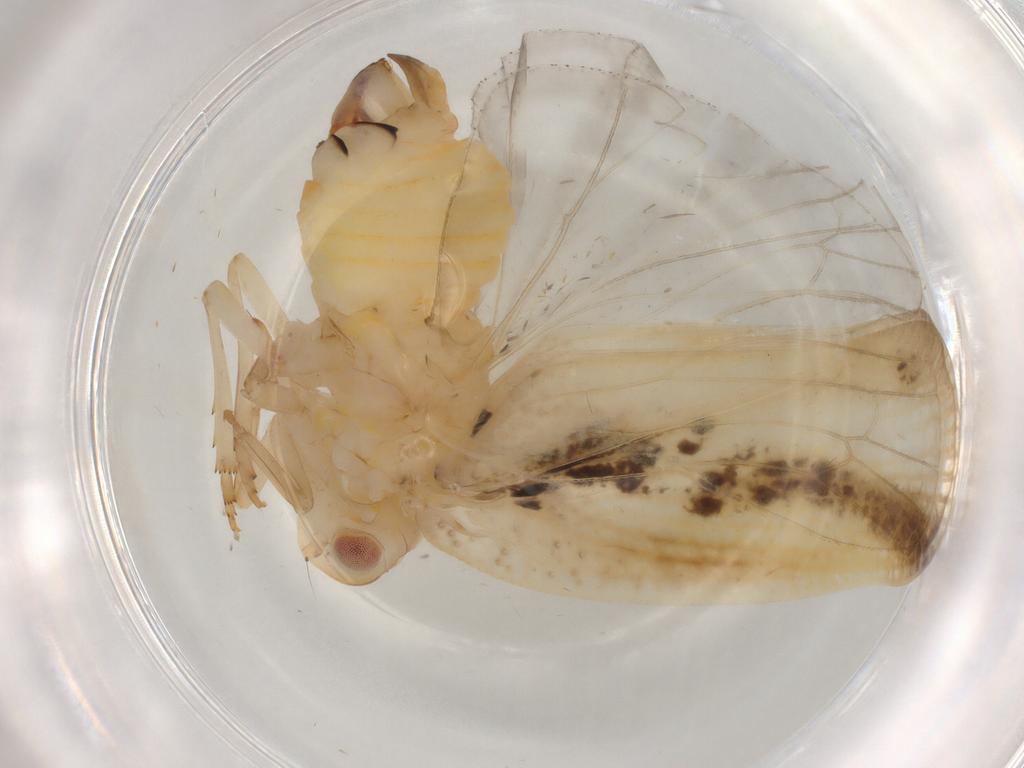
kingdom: Animalia
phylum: Arthropoda
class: Insecta
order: Hemiptera
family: Flatidae
